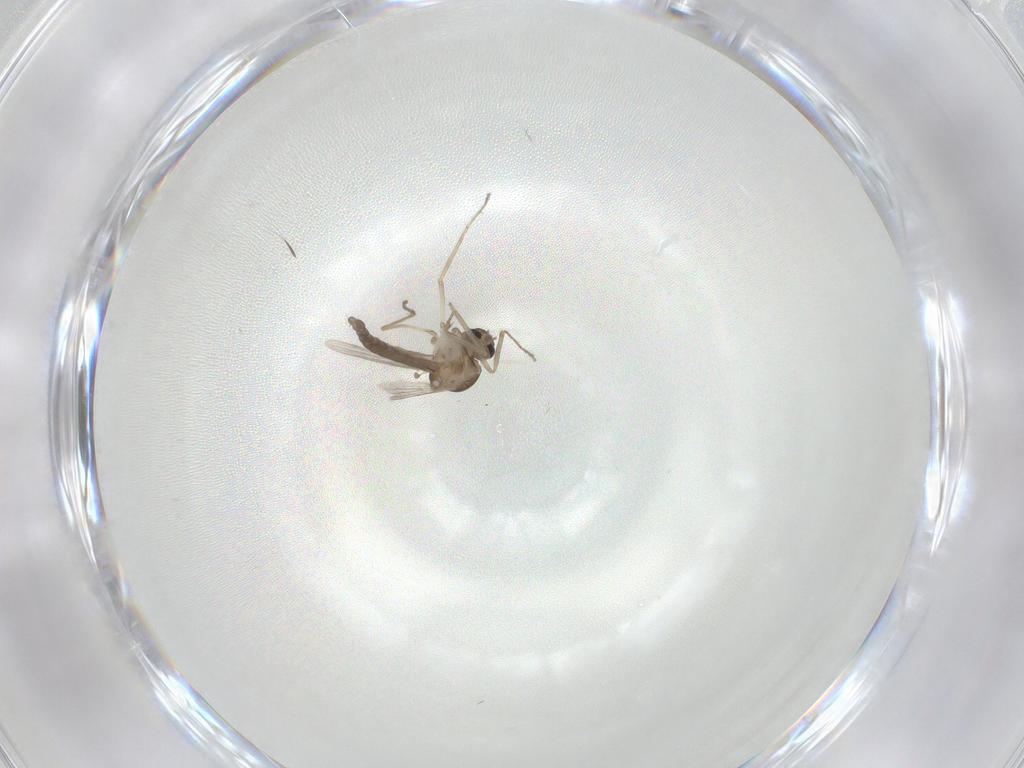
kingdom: Animalia
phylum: Arthropoda
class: Insecta
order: Diptera
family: Ceratopogonidae
